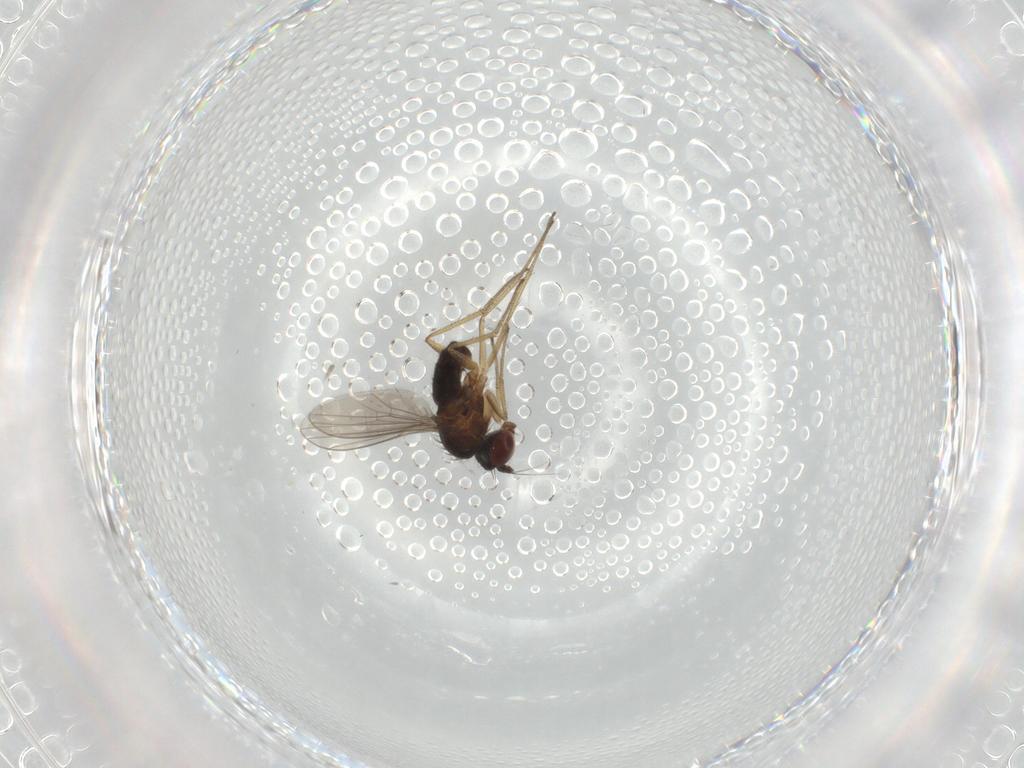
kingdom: Animalia
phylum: Arthropoda
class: Insecta
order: Diptera
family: Dolichopodidae
